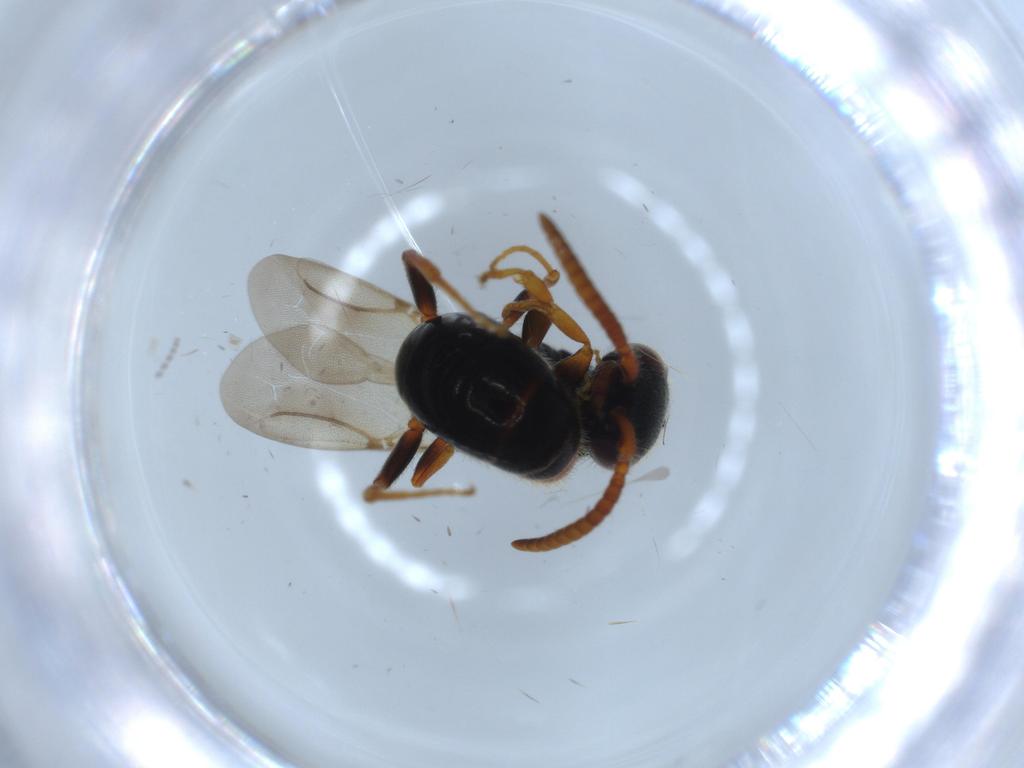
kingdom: Animalia
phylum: Arthropoda
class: Insecta
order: Hymenoptera
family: Bethylidae
